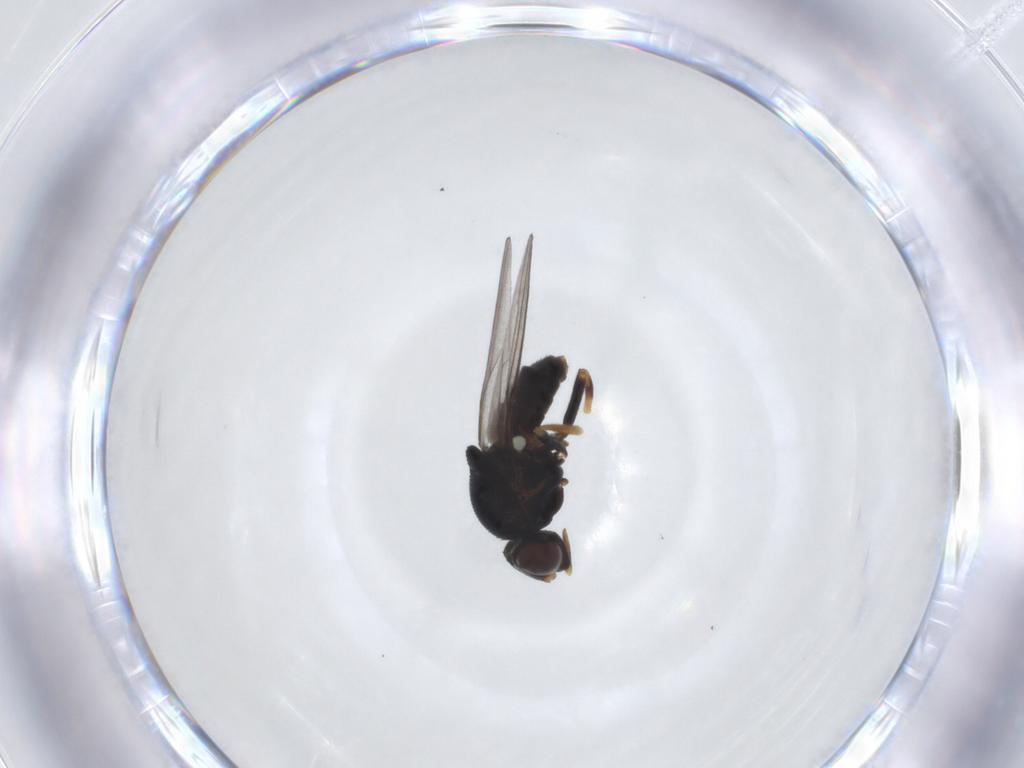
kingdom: Animalia
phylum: Arthropoda
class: Insecta
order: Diptera
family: Chloropidae
